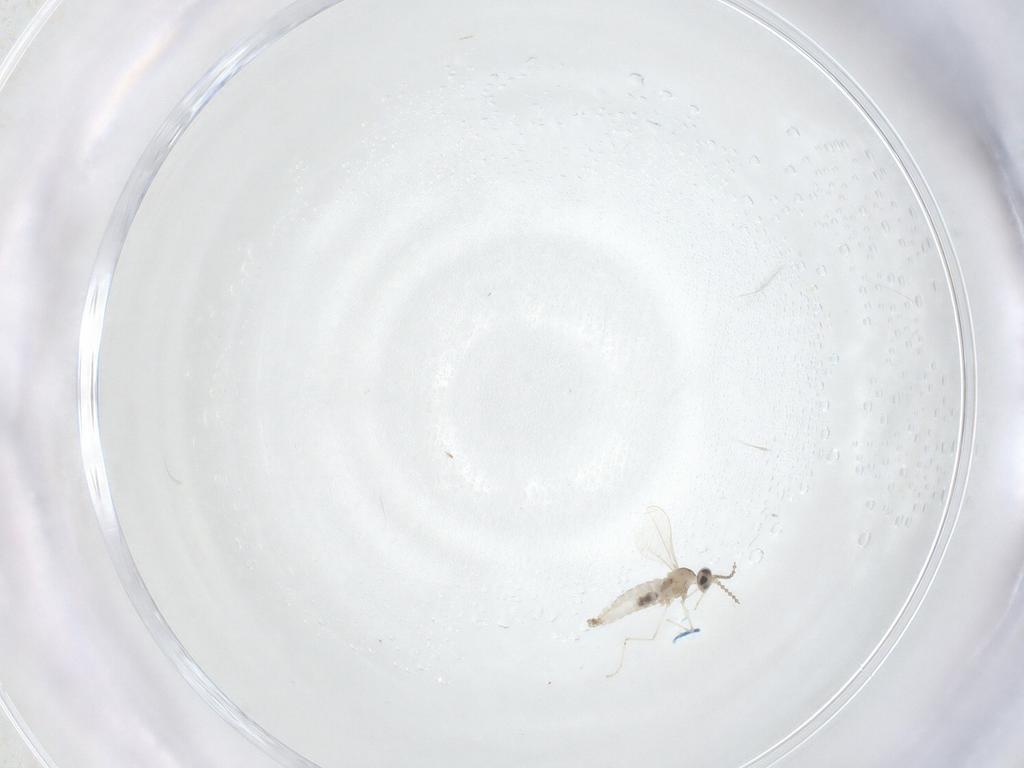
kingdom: Animalia
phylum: Arthropoda
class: Insecta
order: Diptera
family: Cecidomyiidae
